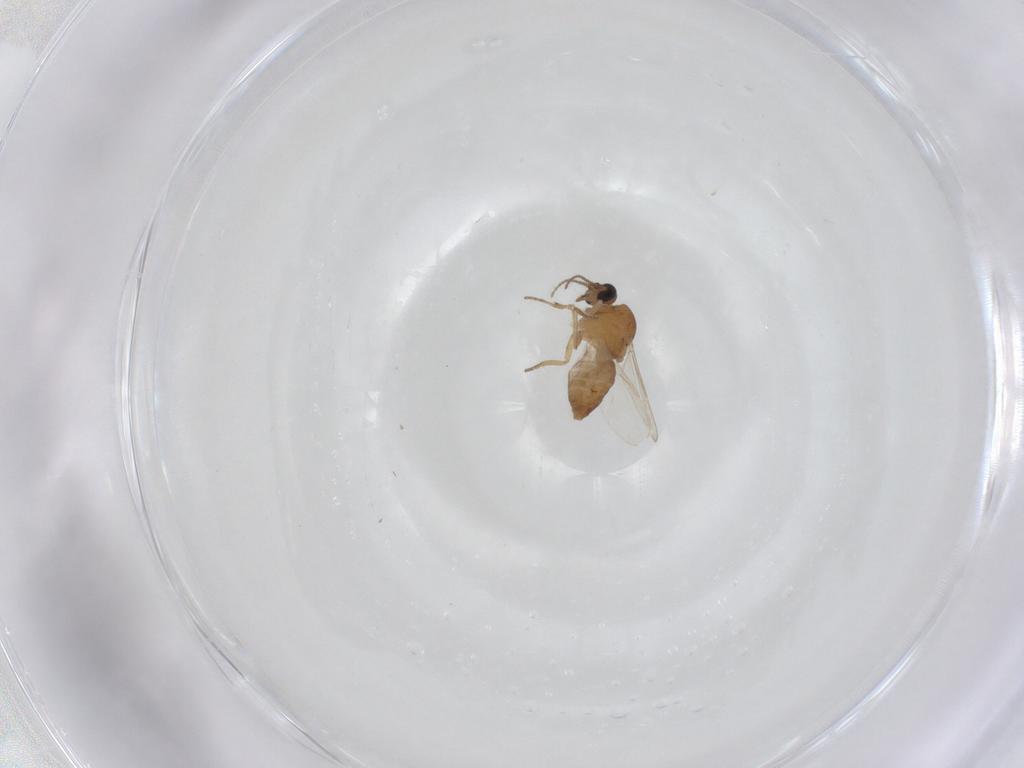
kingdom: Animalia
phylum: Arthropoda
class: Insecta
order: Diptera
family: Ceratopogonidae
